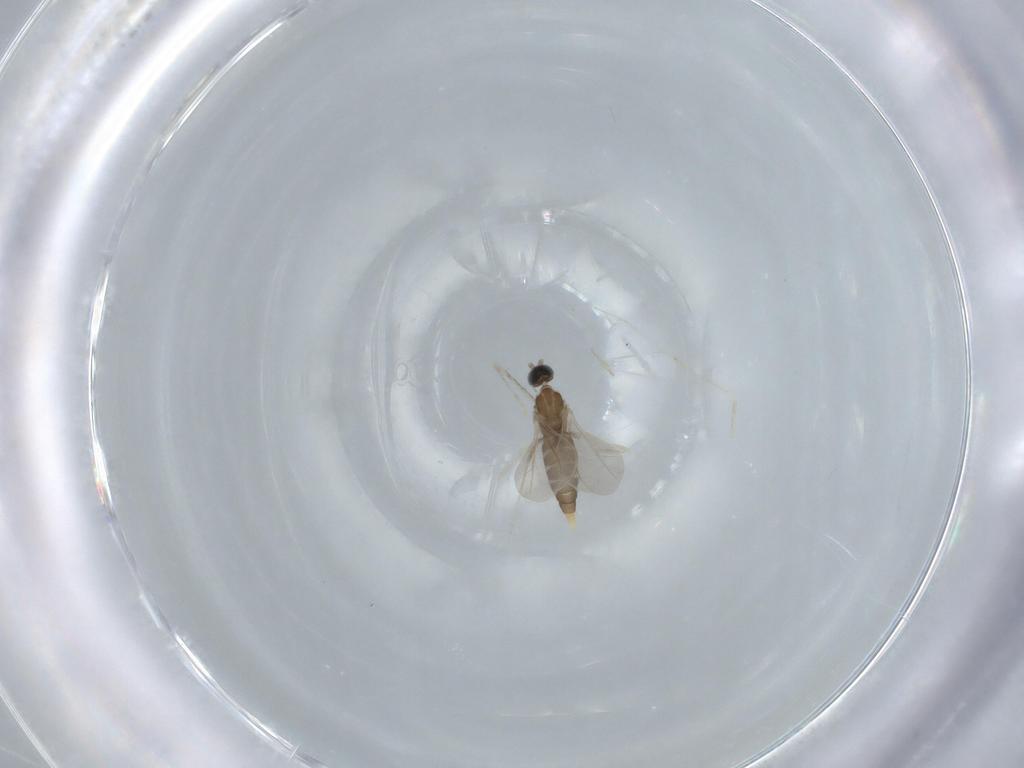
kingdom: Animalia
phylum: Arthropoda
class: Insecta
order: Diptera
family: Cecidomyiidae
